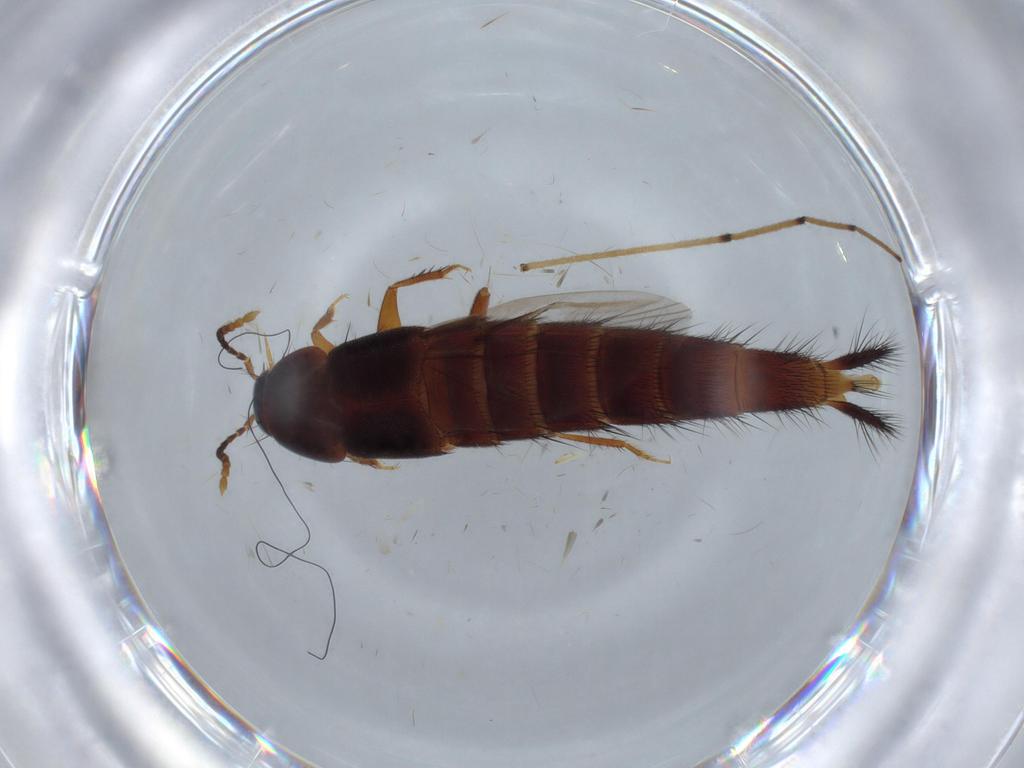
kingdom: Animalia
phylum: Arthropoda
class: Insecta
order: Coleoptera
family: Staphylinidae
